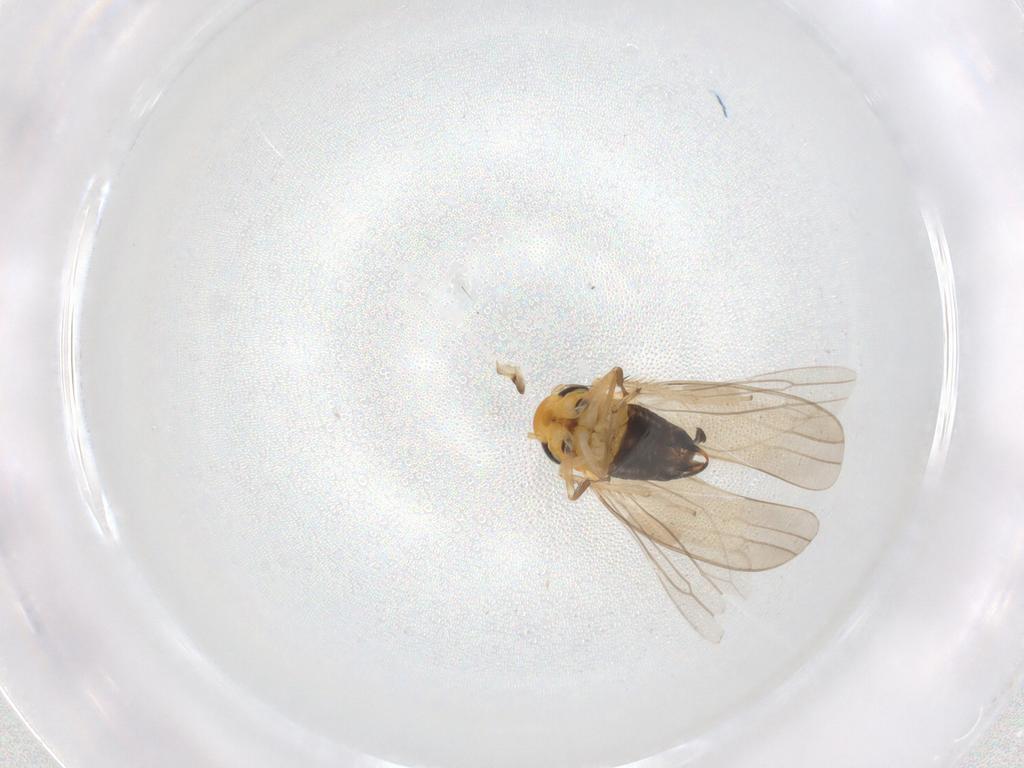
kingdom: Animalia
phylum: Arthropoda
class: Insecta
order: Hemiptera
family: Cicadellidae
